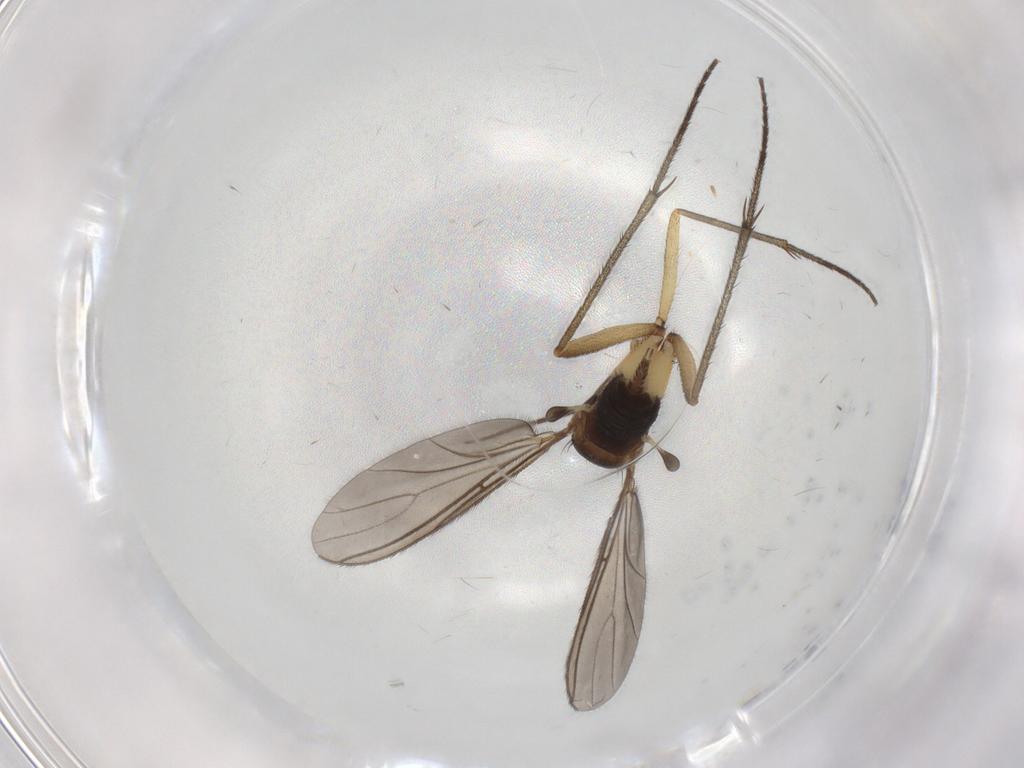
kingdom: Animalia
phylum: Arthropoda
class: Insecta
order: Diptera
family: Sciaridae
